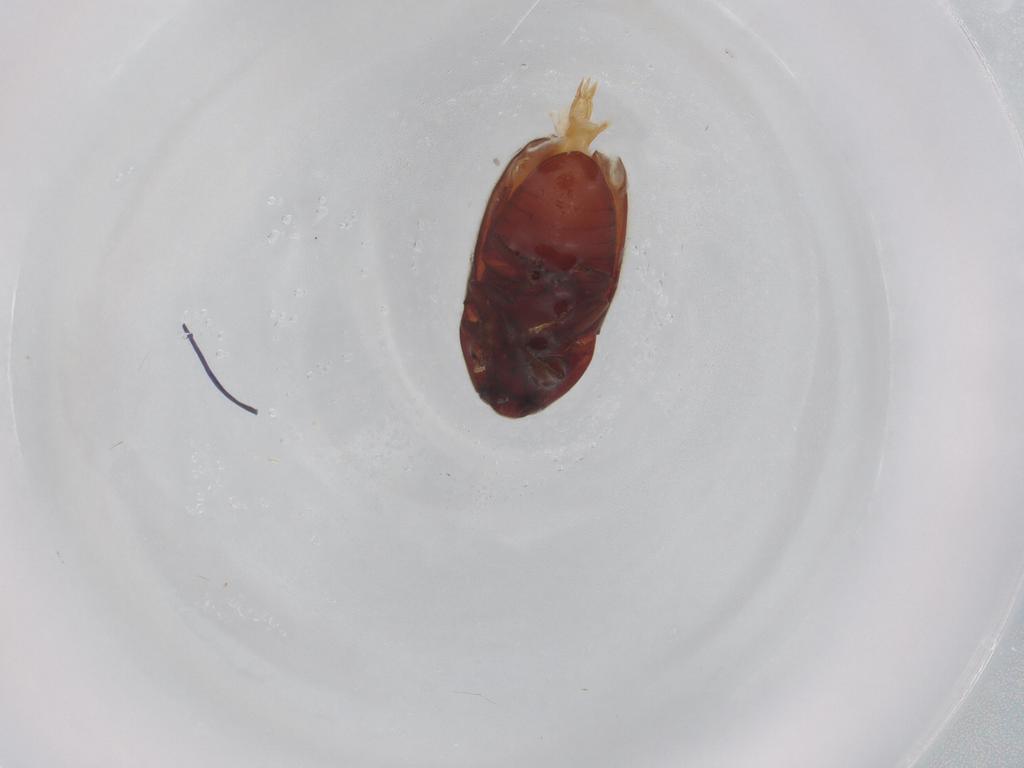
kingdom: Animalia
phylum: Arthropoda
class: Insecta
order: Coleoptera
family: Throscidae
